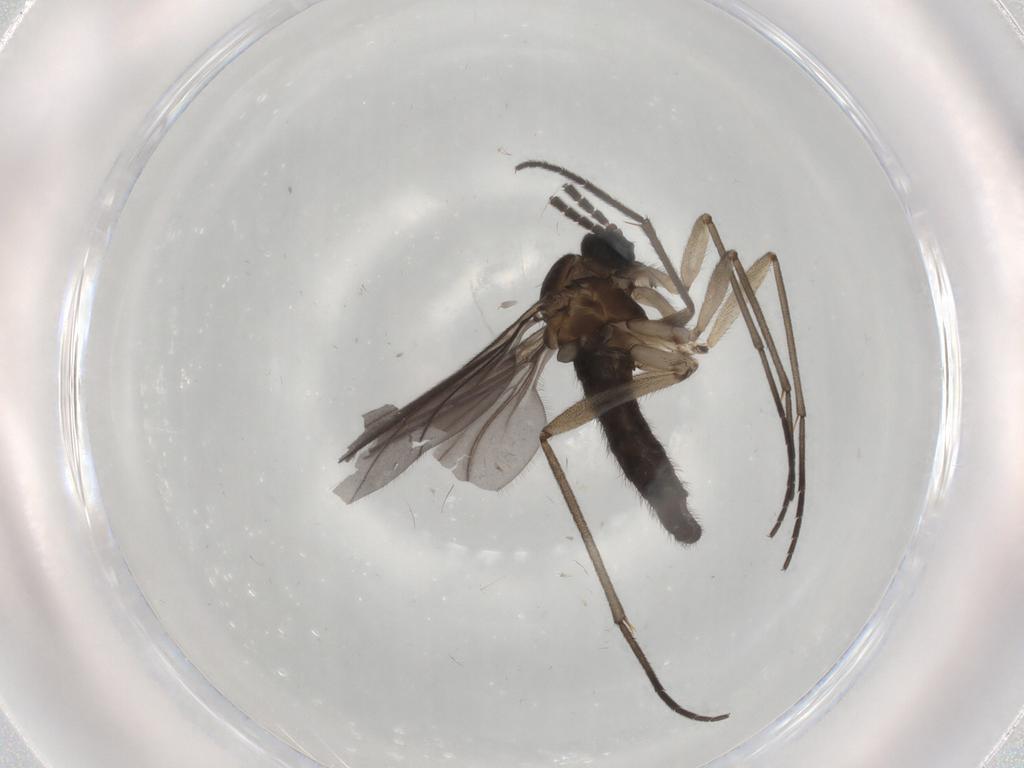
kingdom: Animalia
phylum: Arthropoda
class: Insecta
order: Diptera
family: Sciaridae
